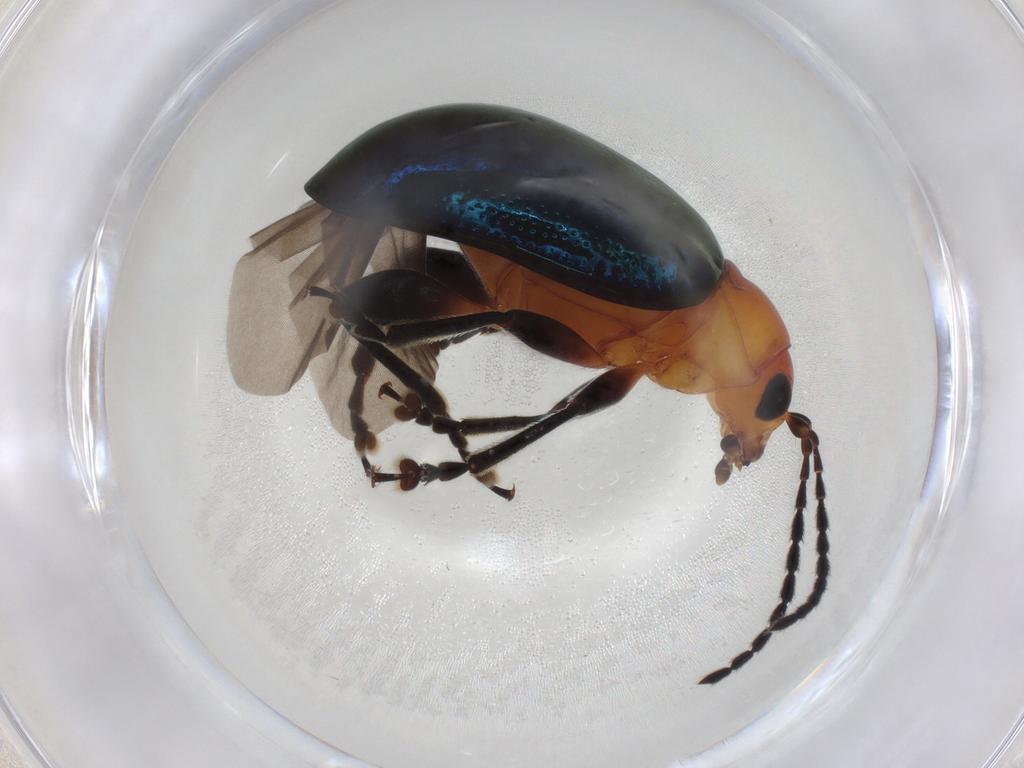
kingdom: Animalia
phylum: Arthropoda
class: Insecta
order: Coleoptera
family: Chrysomelidae
